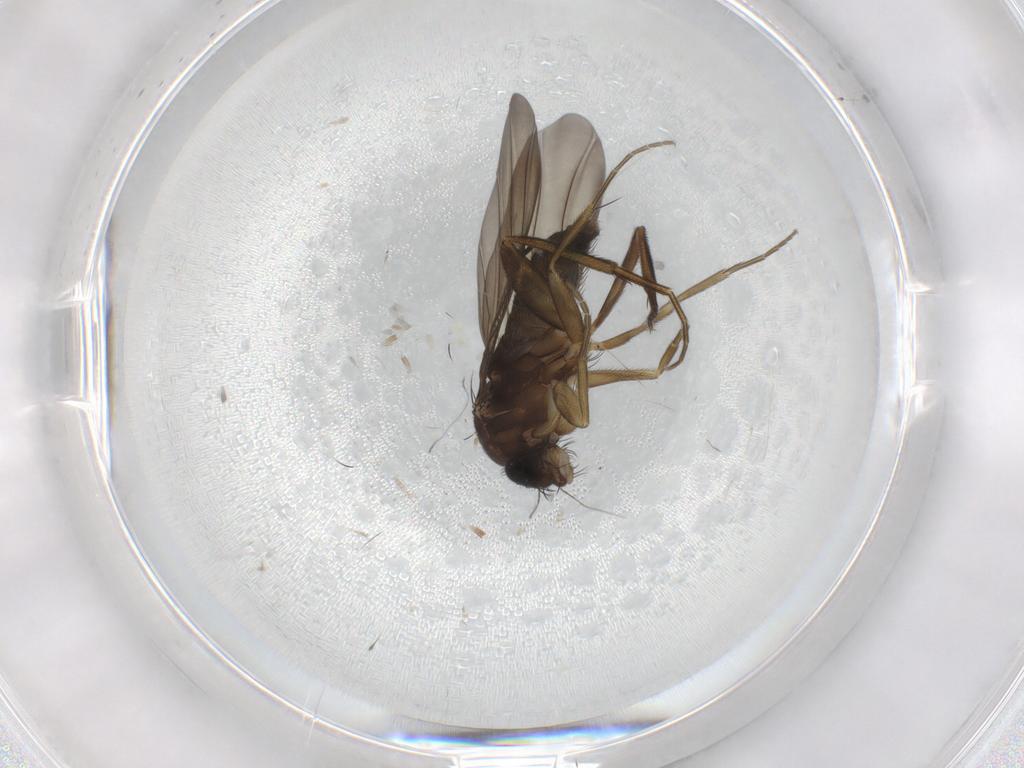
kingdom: Animalia
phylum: Arthropoda
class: Insecta
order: Diptera
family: Phoridae
